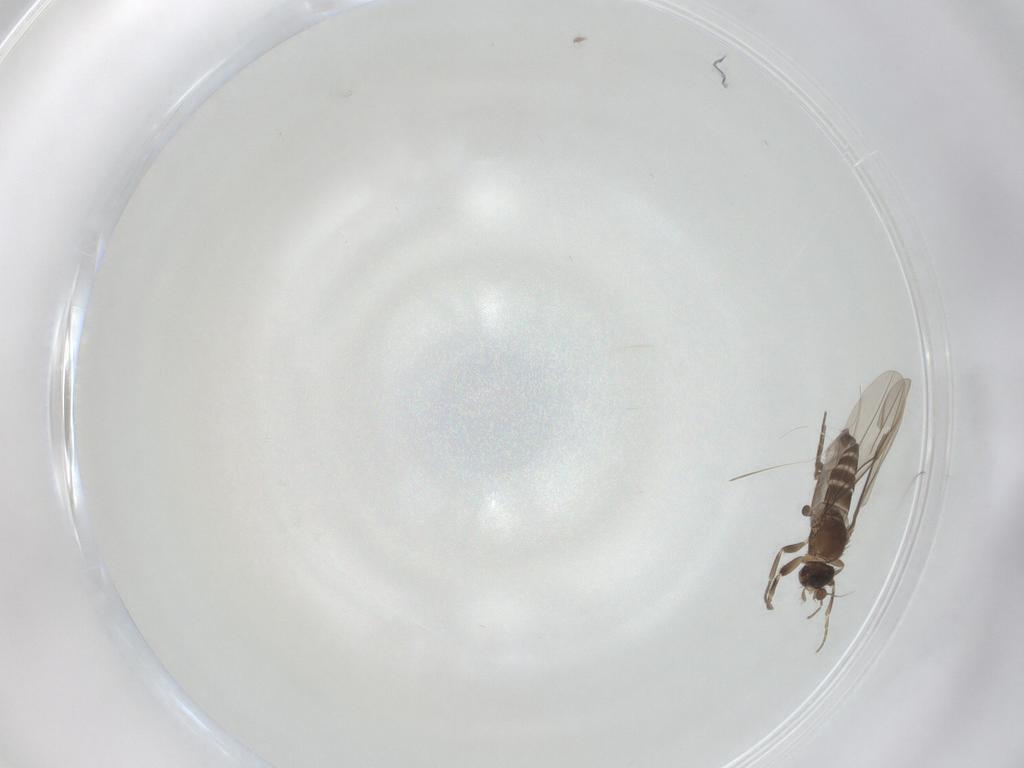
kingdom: Animalia
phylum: Arthropoda
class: Insecta
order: Diptera
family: Phoridae
